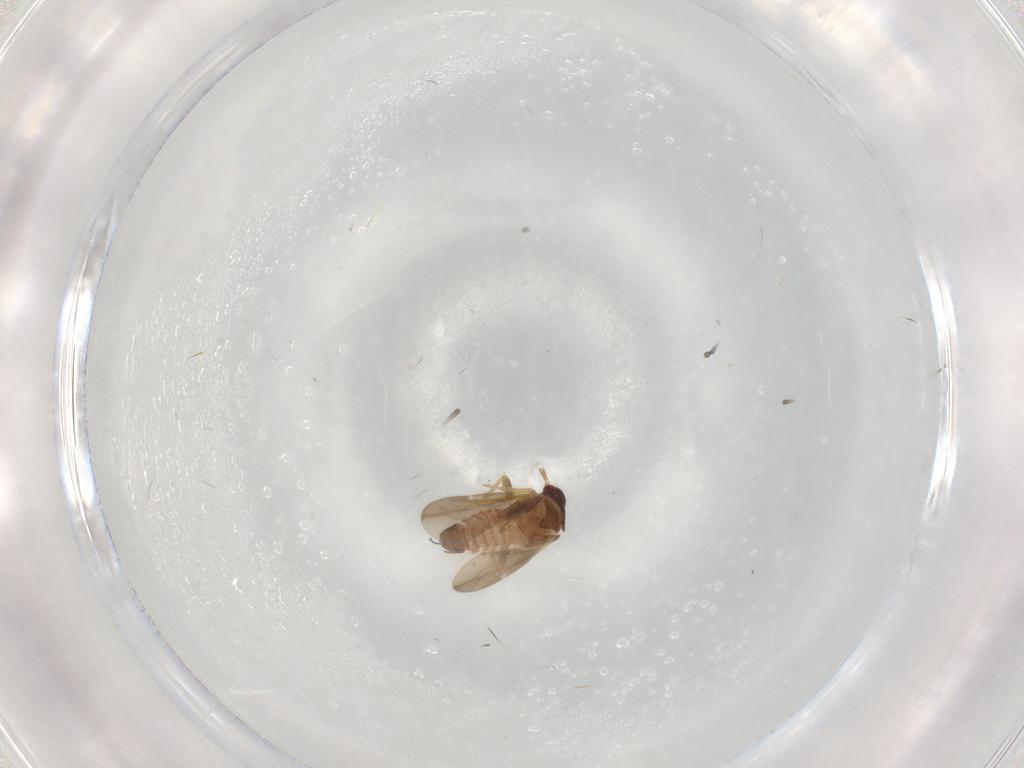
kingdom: Animalia
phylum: Arthropoda
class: Insecta
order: Hemiptera
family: Ceratocombidae
